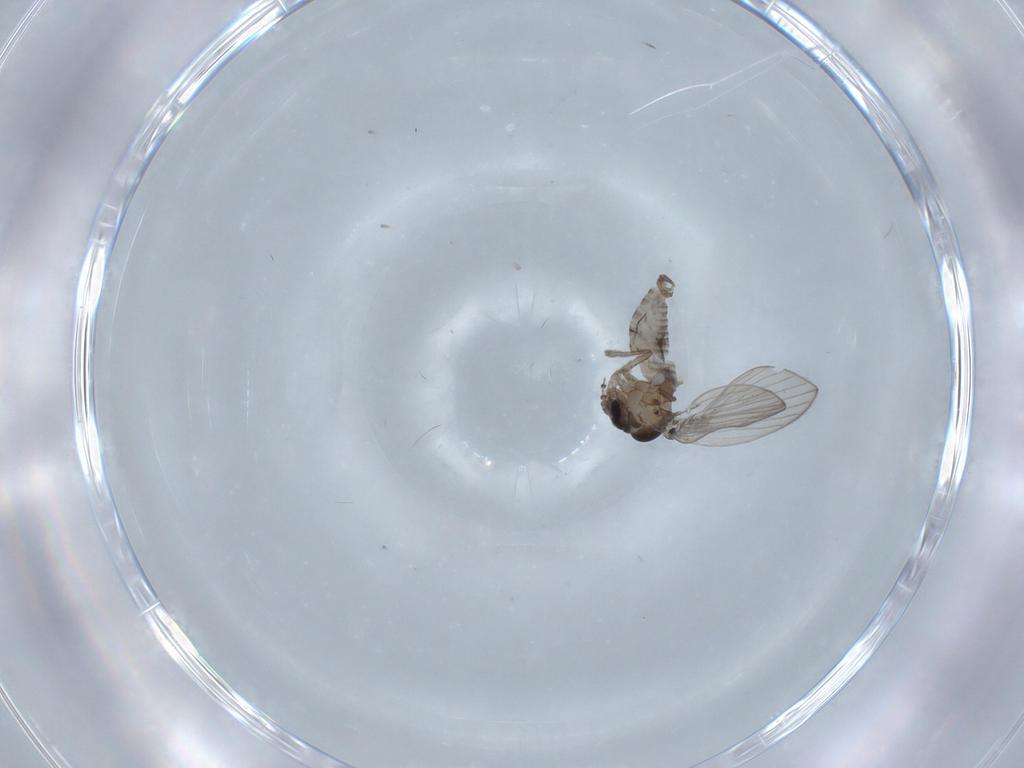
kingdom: Animalia
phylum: Arthropoda
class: Insecta
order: Diptera
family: Psychodidae
